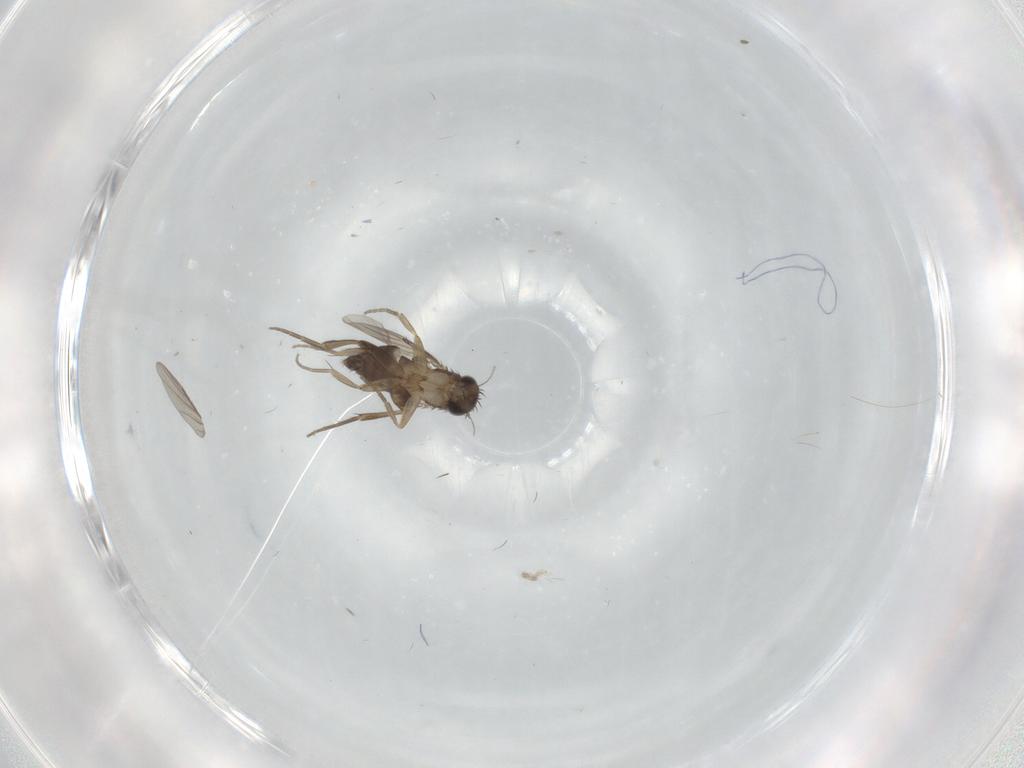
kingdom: Animalia
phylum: Arthropoda
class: Insecta
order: Diptera
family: Phoridae
